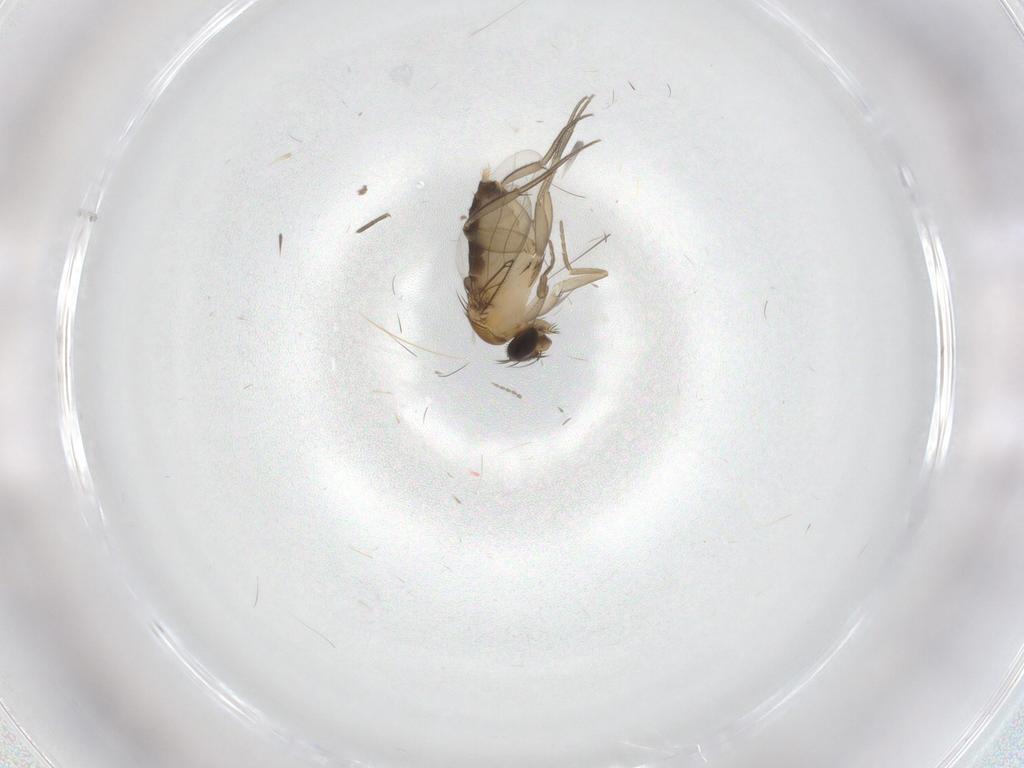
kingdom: Animalia
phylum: Arthropoda
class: Insecta
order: Diptera
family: Phoridae
